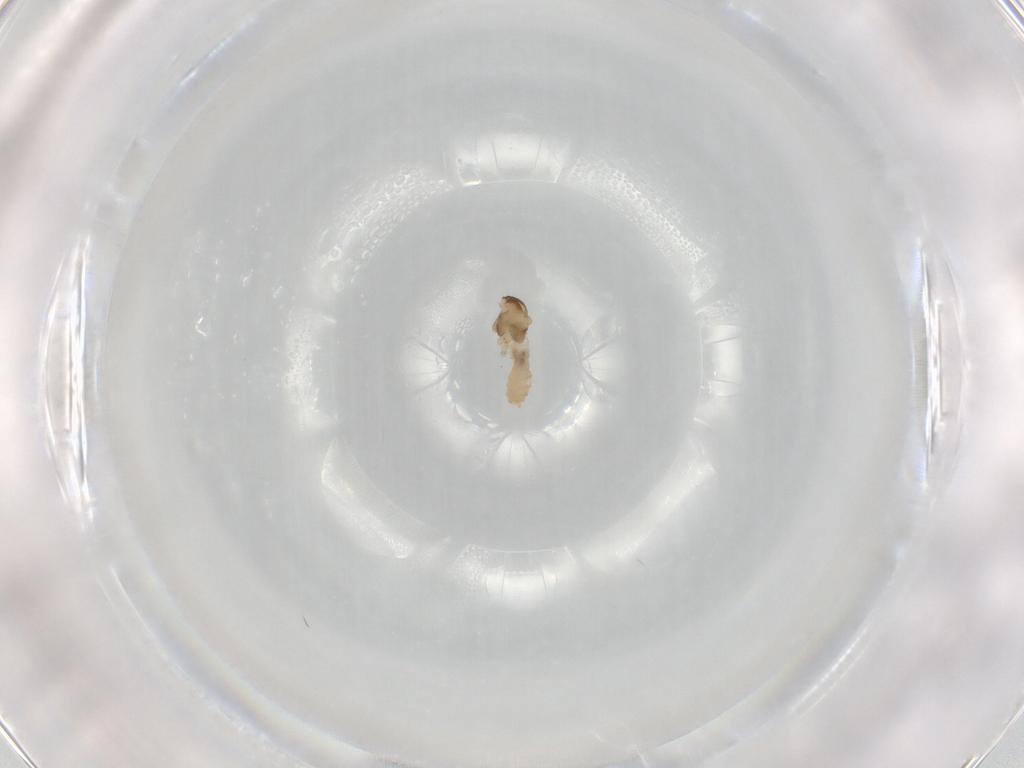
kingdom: Animalia
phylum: Arthropoda
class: Insecta
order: Diptera
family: Cecidomyiidae
